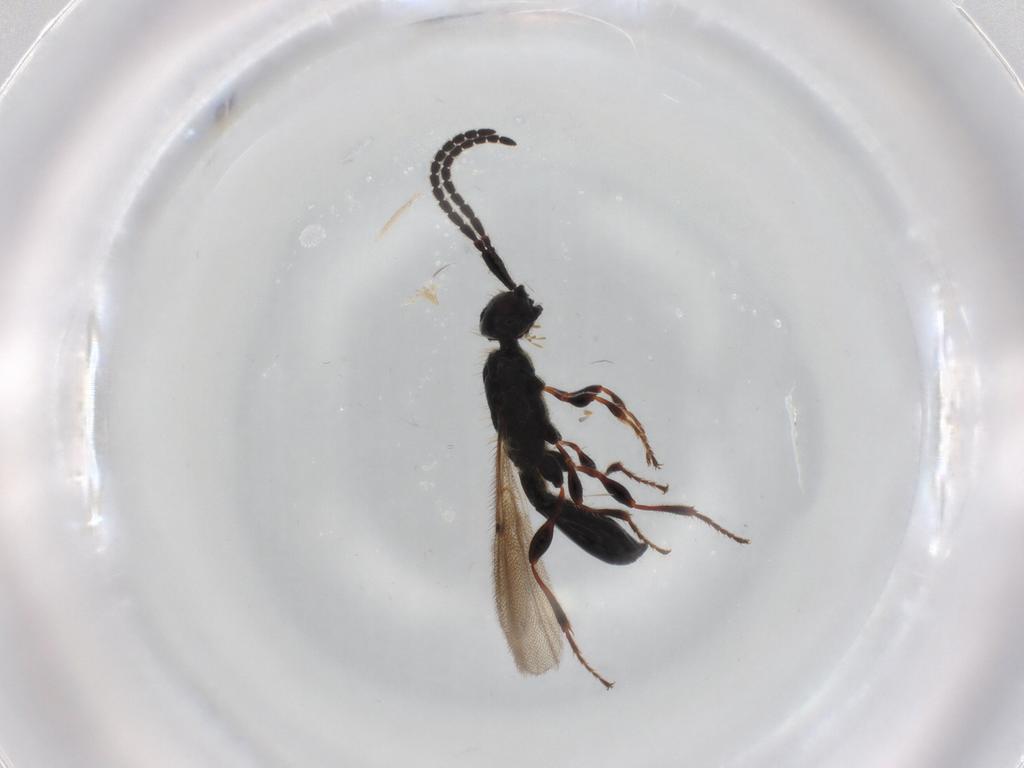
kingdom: Animalia
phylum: Arthropoda
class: Insecta
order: Hymenoptera
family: Diapriidae
